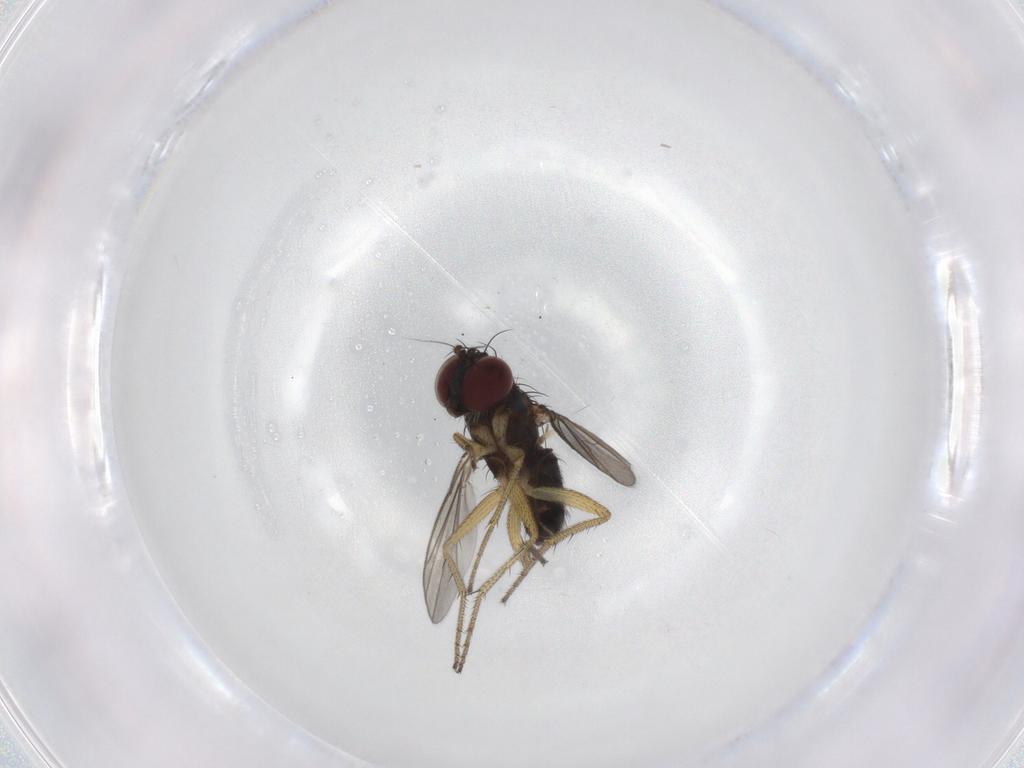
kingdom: Animalia
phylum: Arthropoda
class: Insecta
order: Diptera
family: Dolichopodidae
